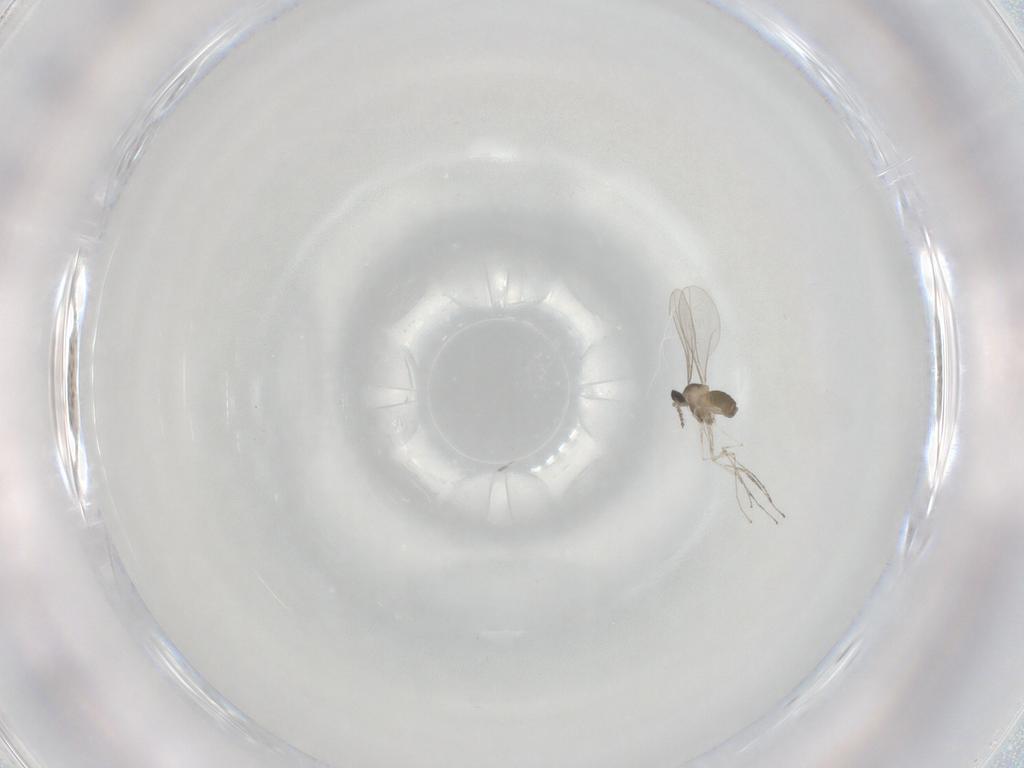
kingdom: Animalia
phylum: Arthropoda
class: Insecta
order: Diptera
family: Cecidomyiidae
